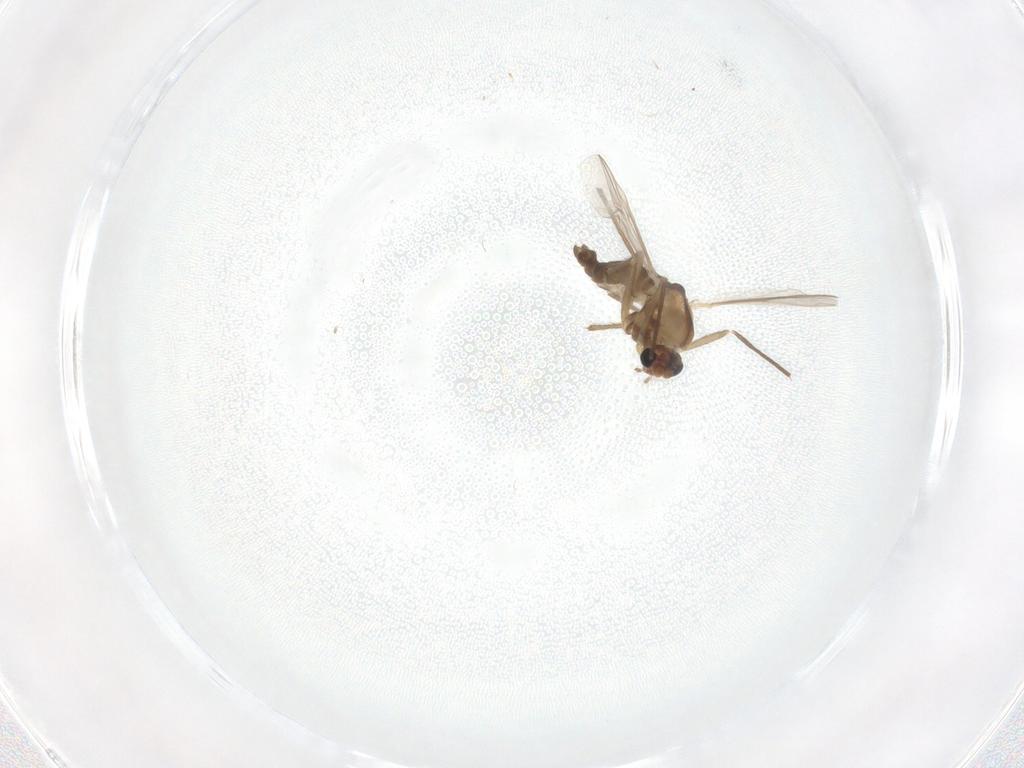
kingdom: Animalia
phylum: Arthropoda
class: Insecta
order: Diptera
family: Chironomidae
